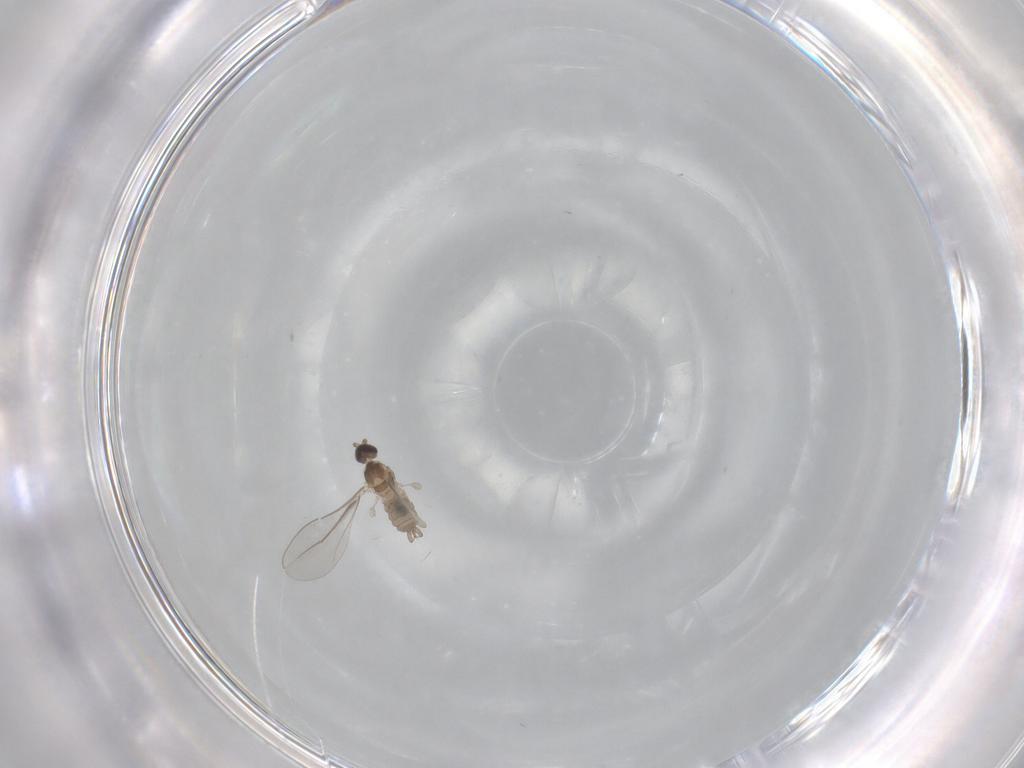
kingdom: Animalia
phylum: Arthropoda
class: Insecta
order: Diptera
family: Cecidomyiidae
